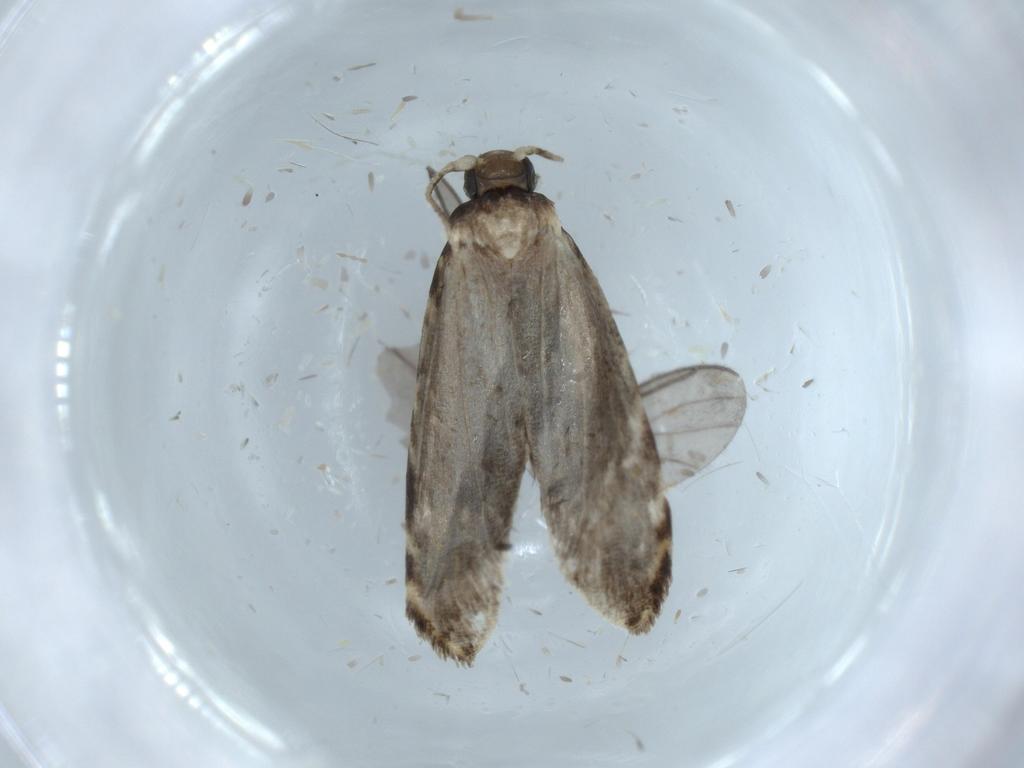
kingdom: Animalia
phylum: Arthropoda
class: Insecta
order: Lepidoptera
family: Tineidae
